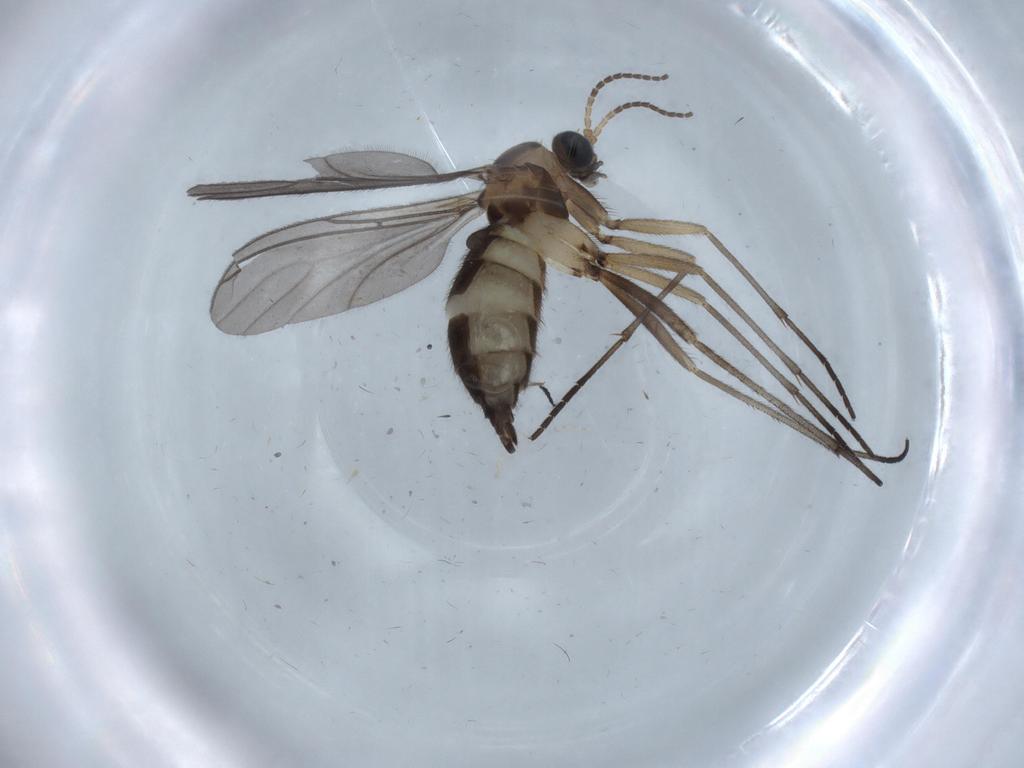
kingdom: Animalia
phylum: Arthropoda
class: Insecta
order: Diptera
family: Sciaridae
